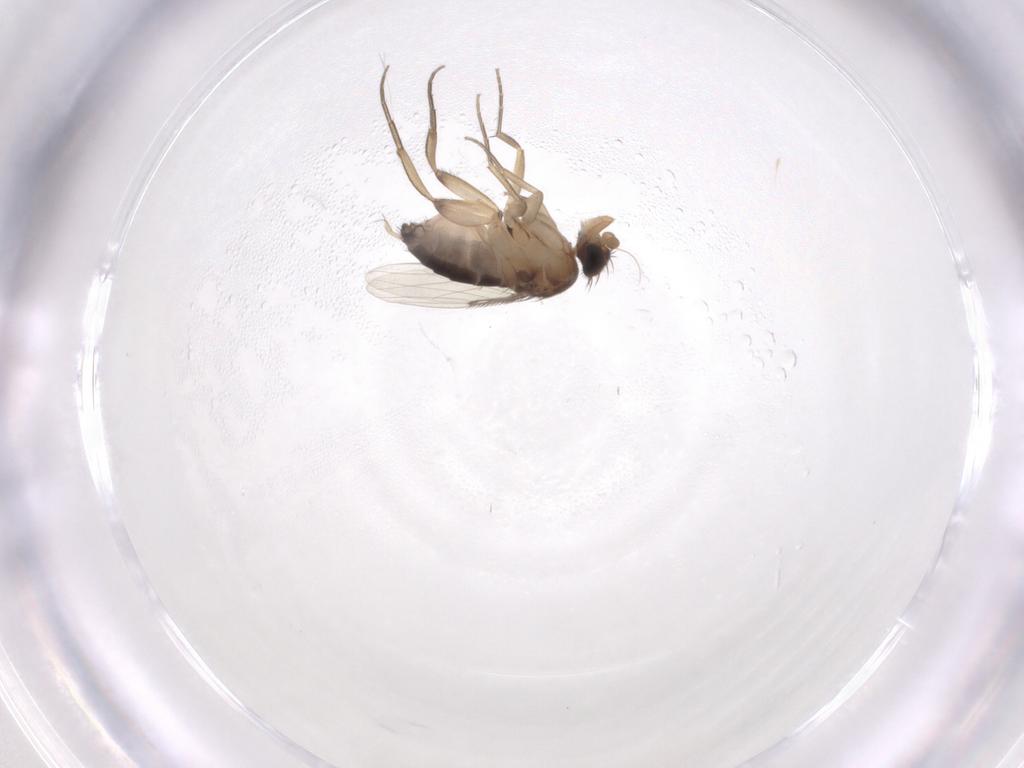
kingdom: Animalia
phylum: Arthropoda
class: Insecta
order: Diptera
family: Phoridae
